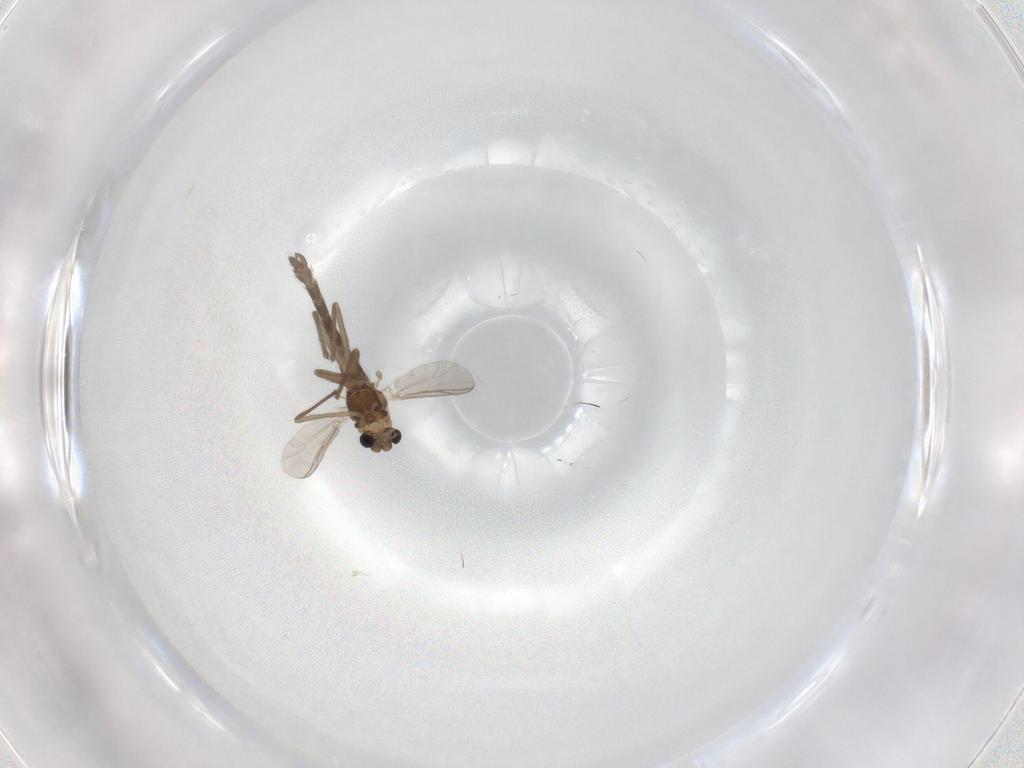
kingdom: Animalia
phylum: Arthropoda
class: Insecta
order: Diptera
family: Chironomidae
